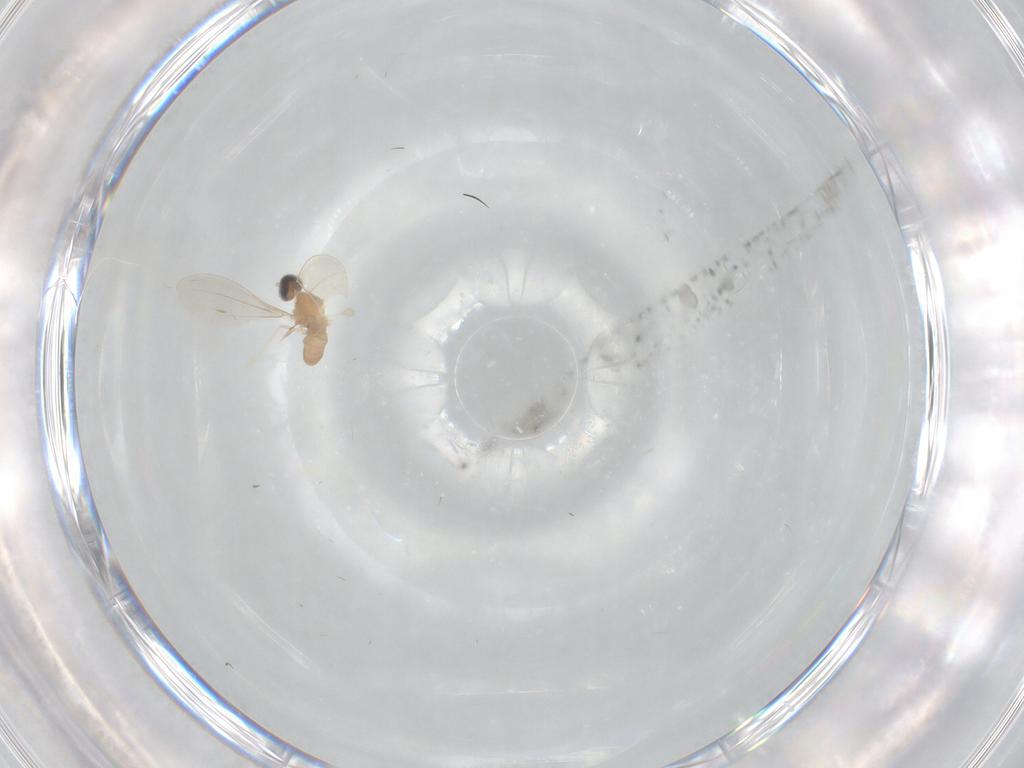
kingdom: Animalia
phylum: Arthropoda
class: Insecta
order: Diptera
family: Cecidomyiidae
